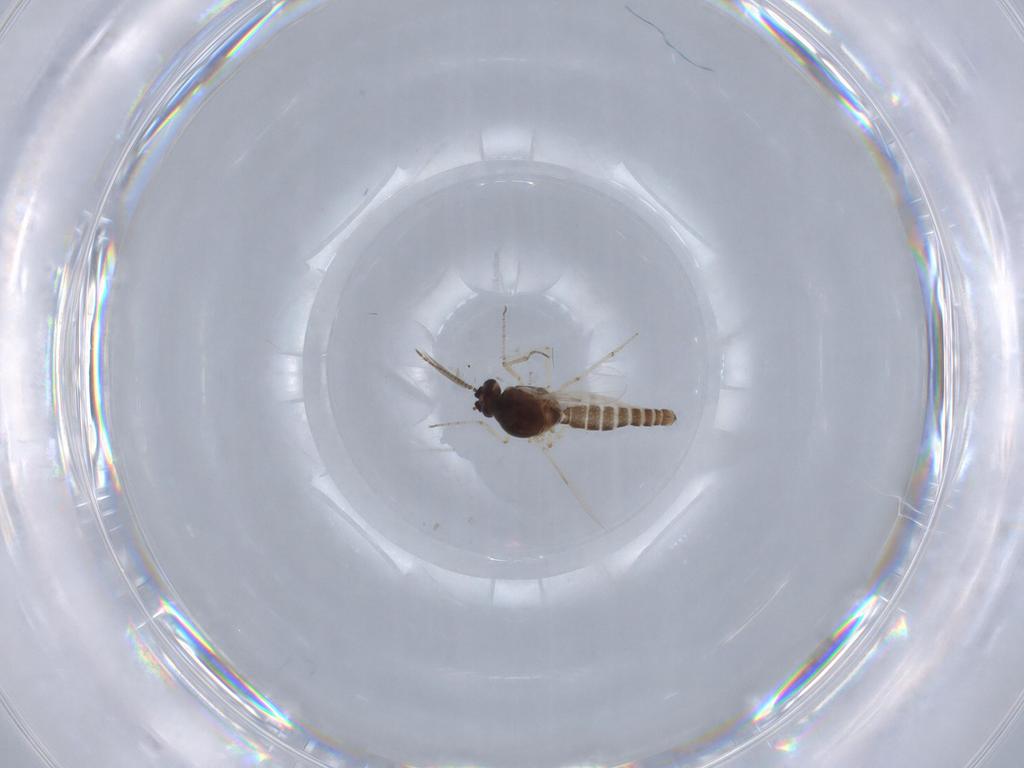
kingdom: Animalia
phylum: Arthropoda
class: Insecta
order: Diptera
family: Ceratopogonidae
